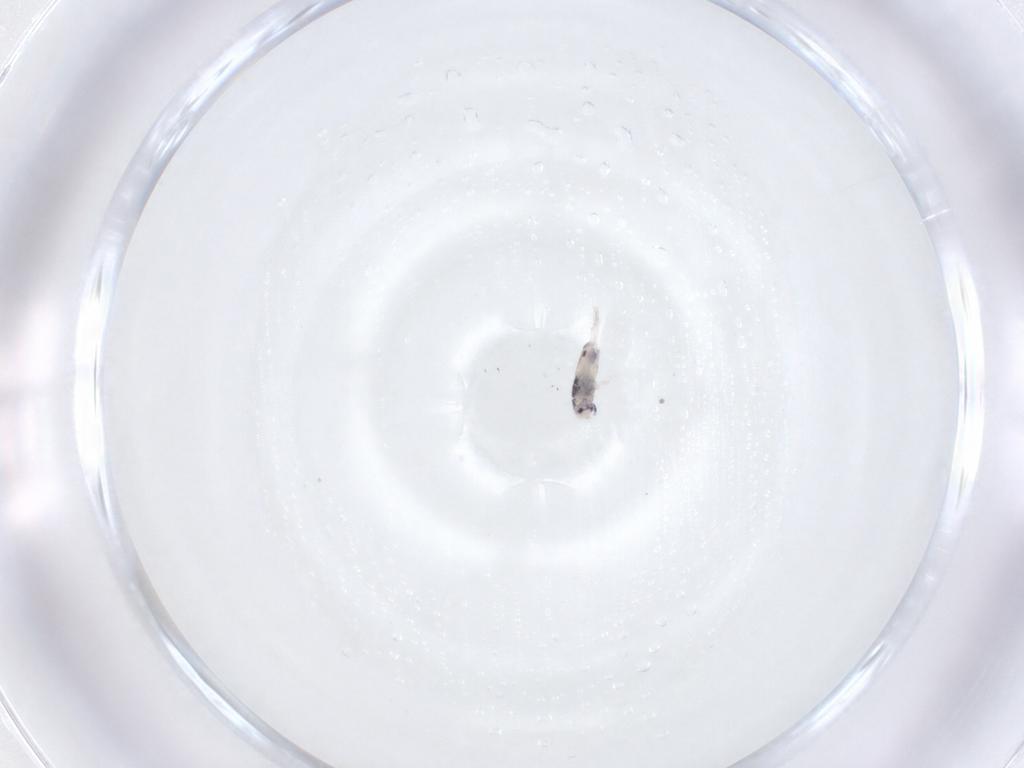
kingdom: Animalia
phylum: Arthropoda
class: Collembola
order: Entomobryomorpha
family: Entomobryidae
